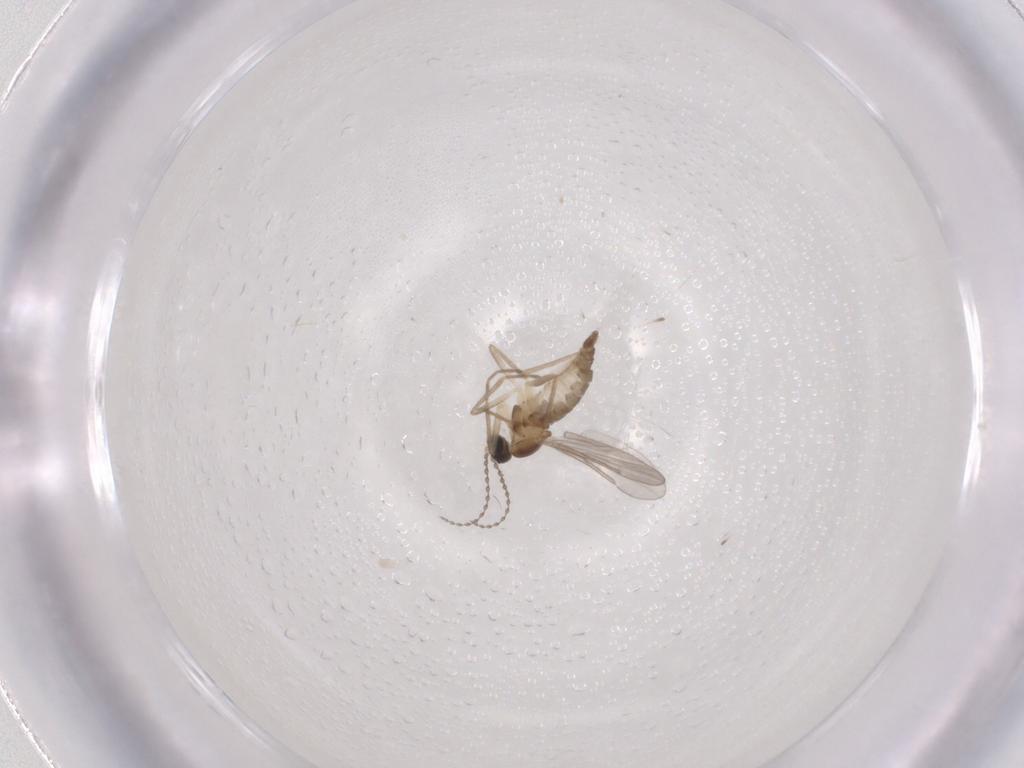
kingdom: Animalia
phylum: Arthropoda
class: Insecta
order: Diptera
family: Cecidomyiidae
